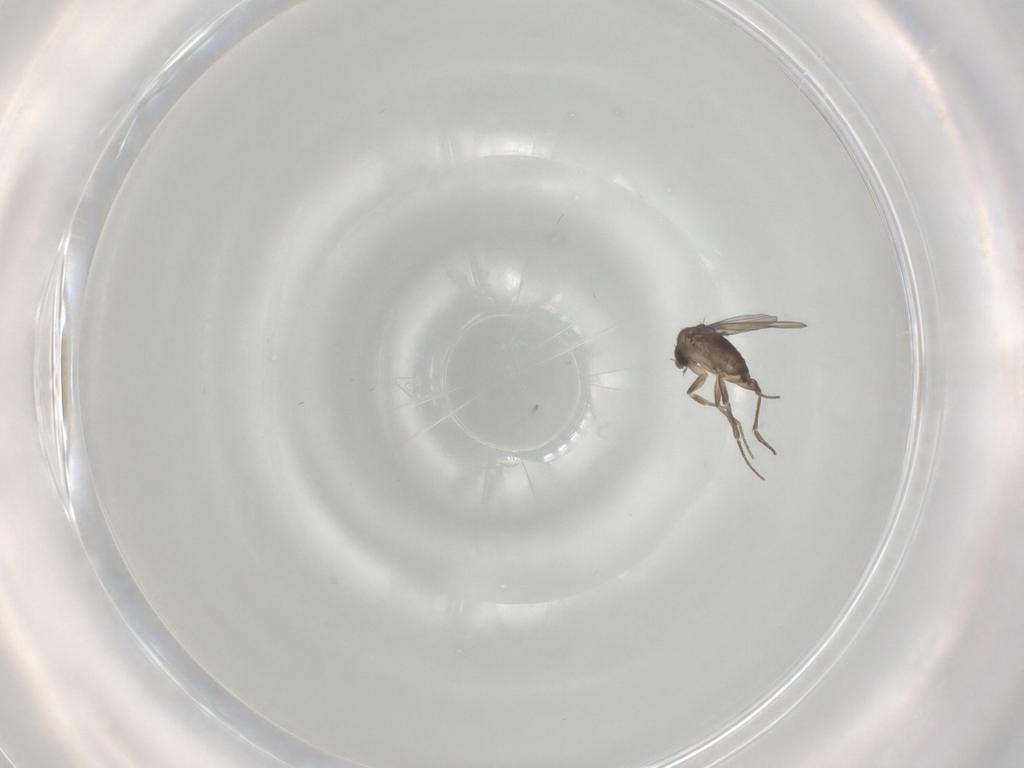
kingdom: Animalia
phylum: Arthropoda
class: Insecta
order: Diptera
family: Phoridae
